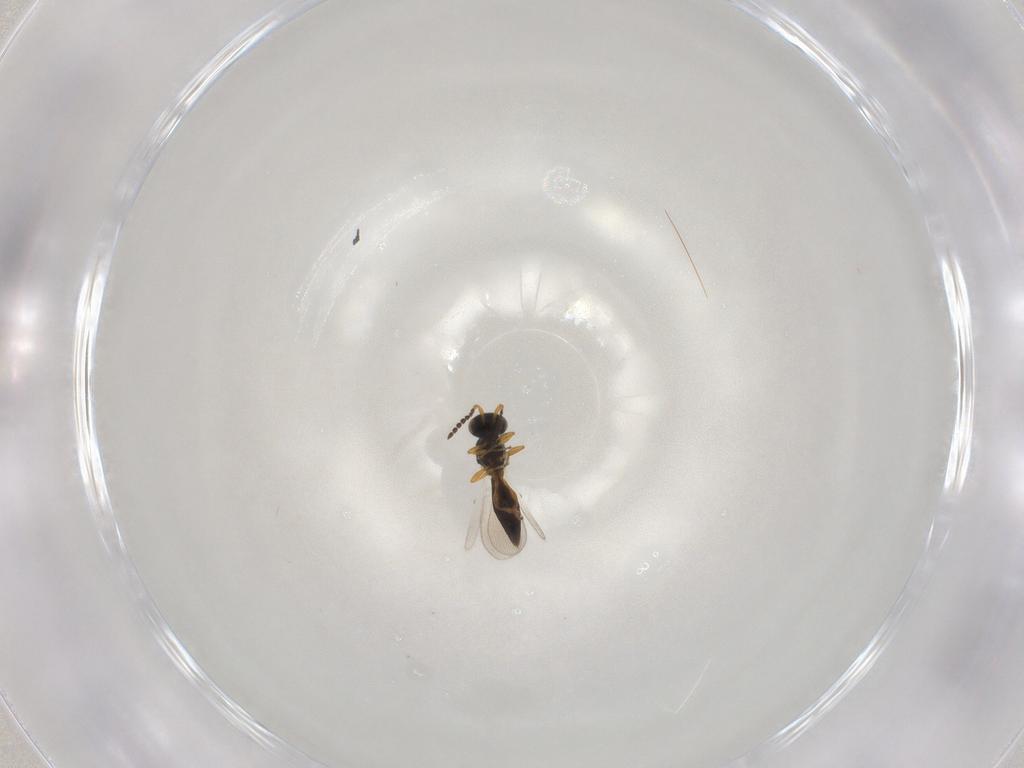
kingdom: Animalia
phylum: Arthropoda
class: Insecta
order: Hymenoptera
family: Platygastridae
